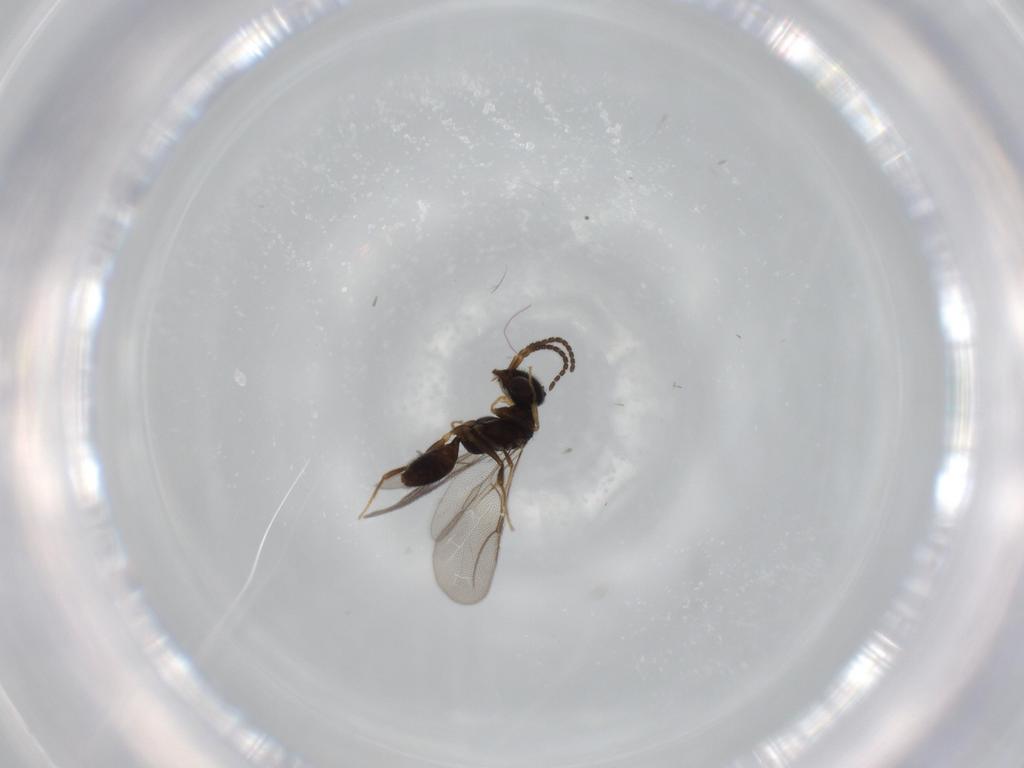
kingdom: Animalia
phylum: Arthropoda
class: Insecta
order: Hymenoptera
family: Bethylidae
